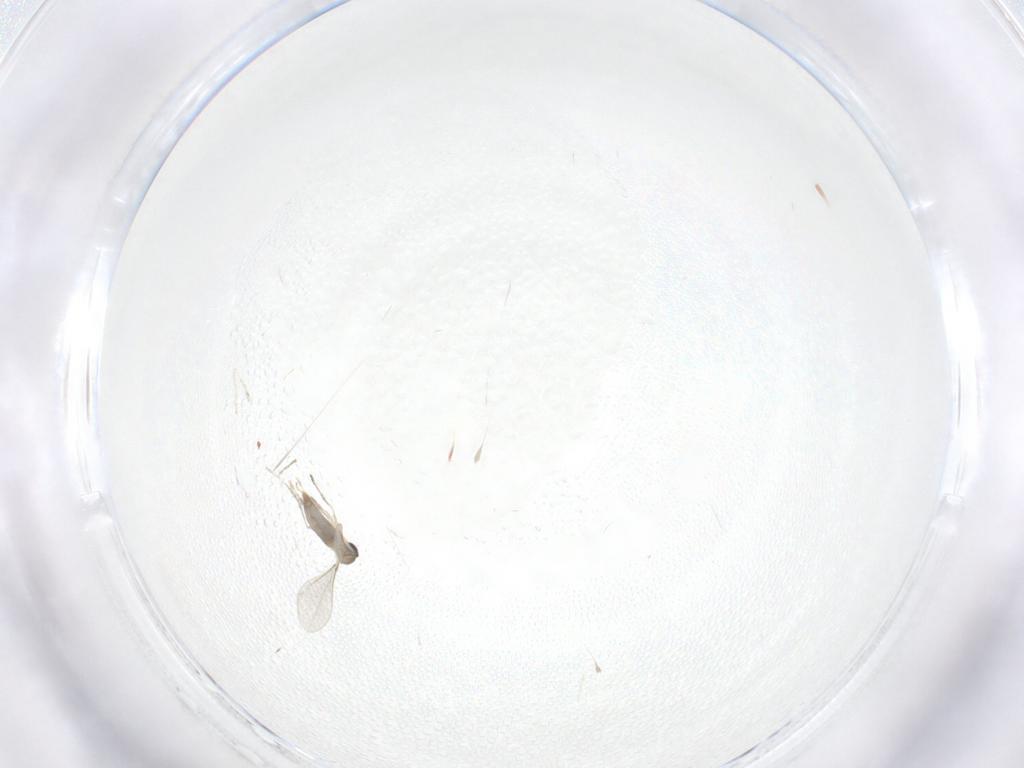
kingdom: Animalia
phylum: Arthropoda
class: Insecta
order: Diptera
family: Cecidomyiidae
